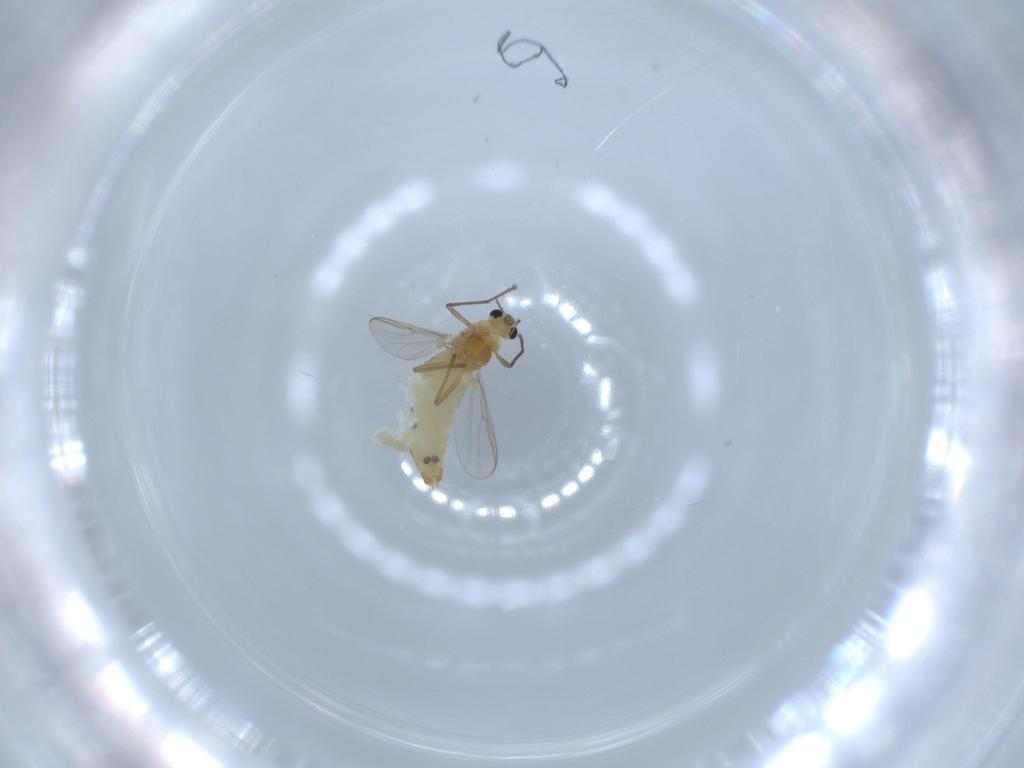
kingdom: Animalia
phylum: Arthropoda
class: Insecta
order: Diptera
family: Chironomidae
